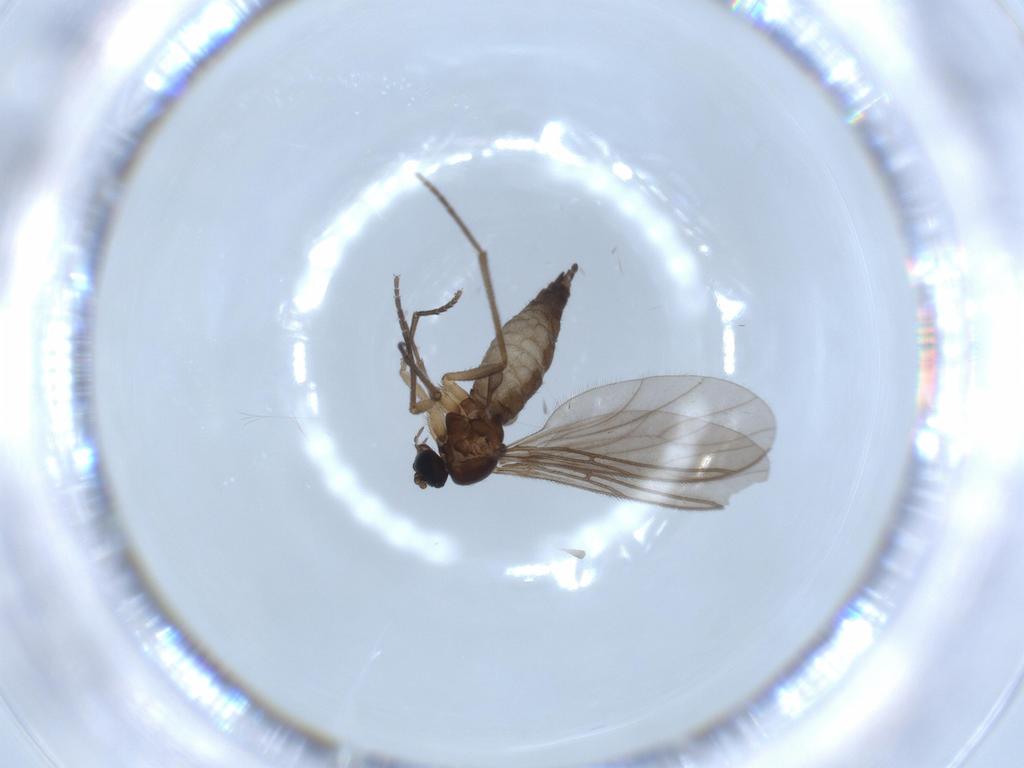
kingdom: Animalia
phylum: Arthropoda
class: Insecta
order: Diptera
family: Sciaridae
